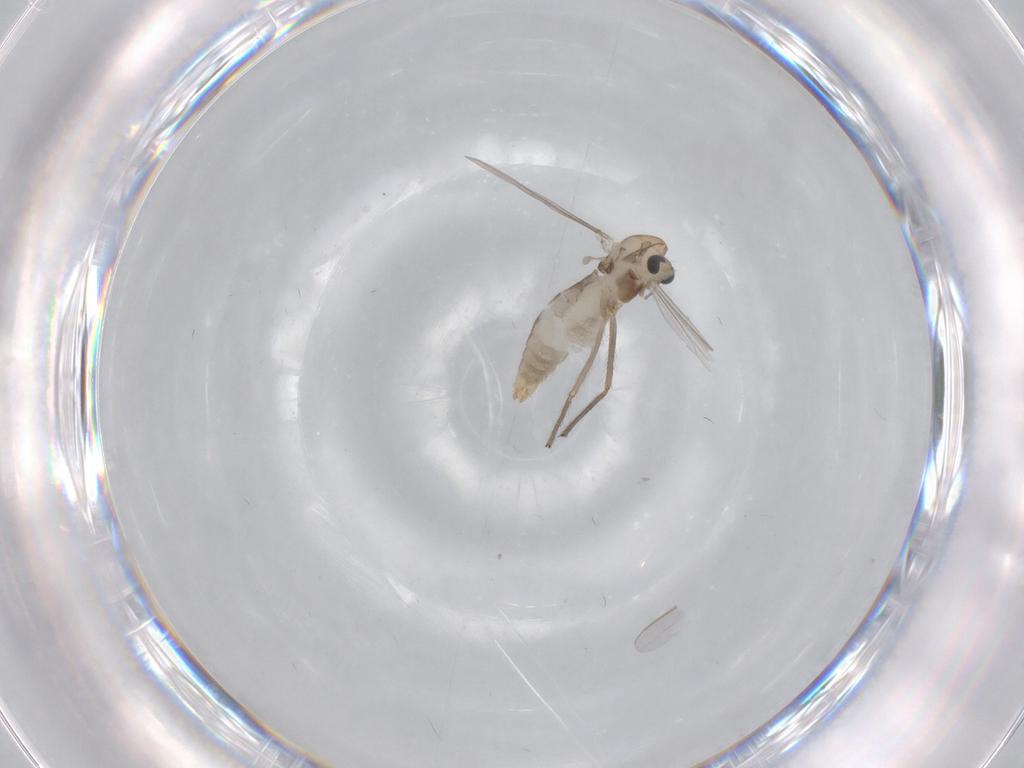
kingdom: Animalia
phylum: Arthropoda
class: Insecta
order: Diptera
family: Chironomidae
